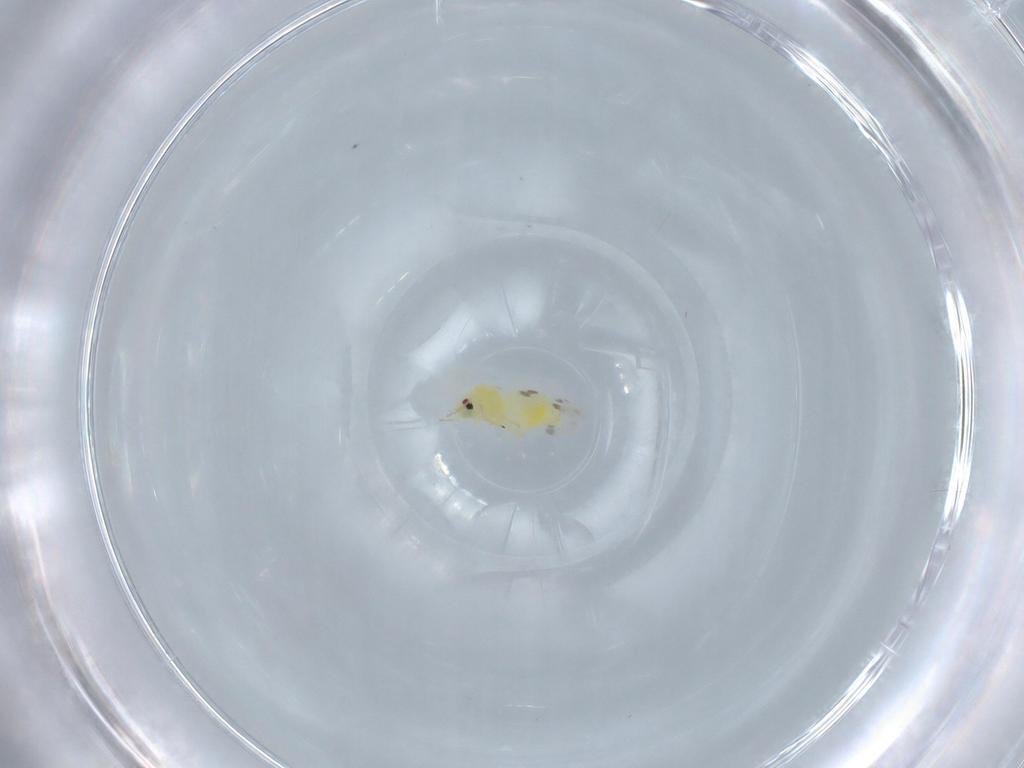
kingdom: Animalia
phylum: Arthropoda
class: Insecta
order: Hemiptera
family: Aleyrodidae
